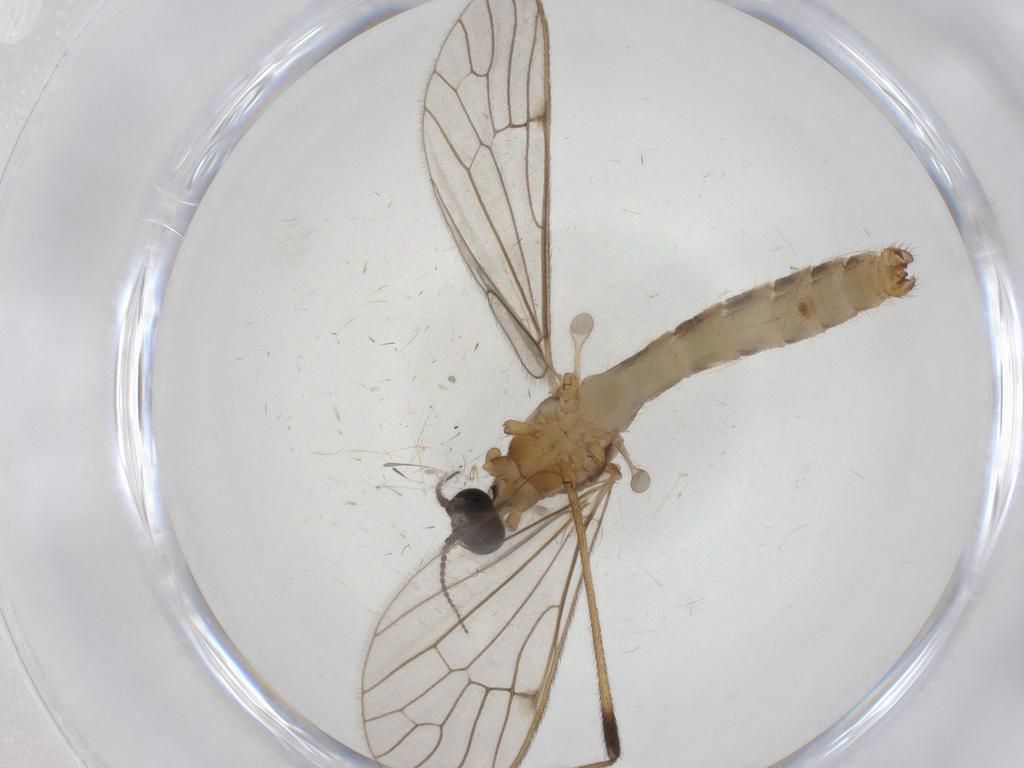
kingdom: Animalia
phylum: Arthropoda
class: Insecta
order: Diptera
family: Limoniidae
